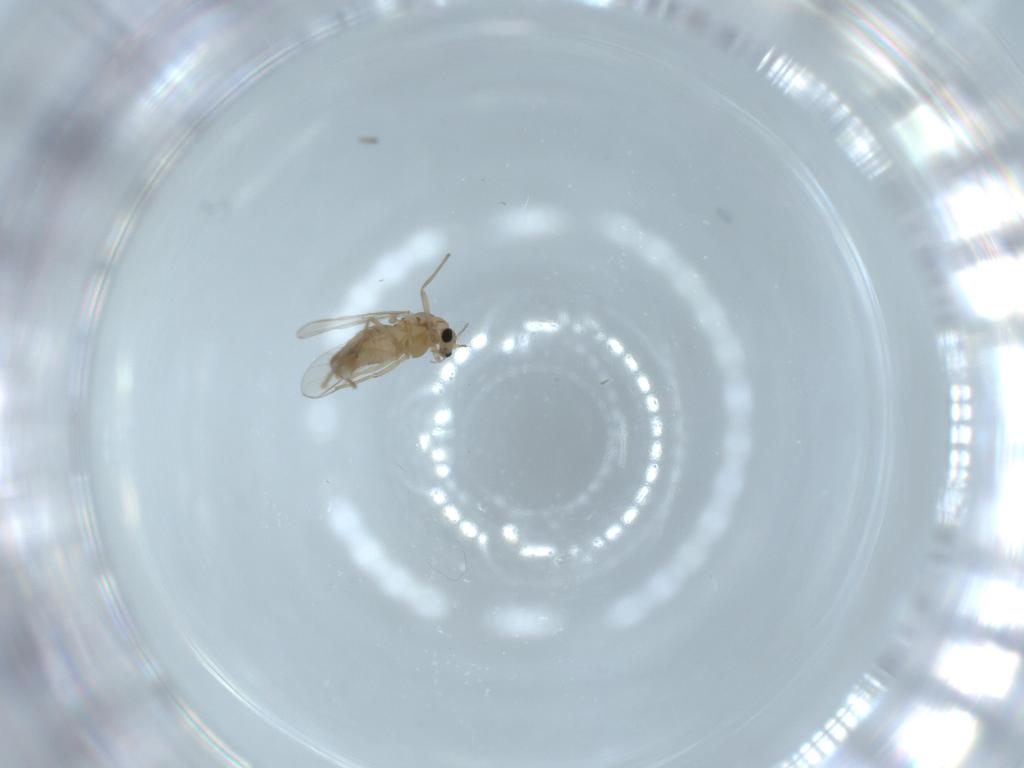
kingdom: Animalia
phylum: Arthropoda
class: Insecta
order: Diptera
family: Chironomidae
